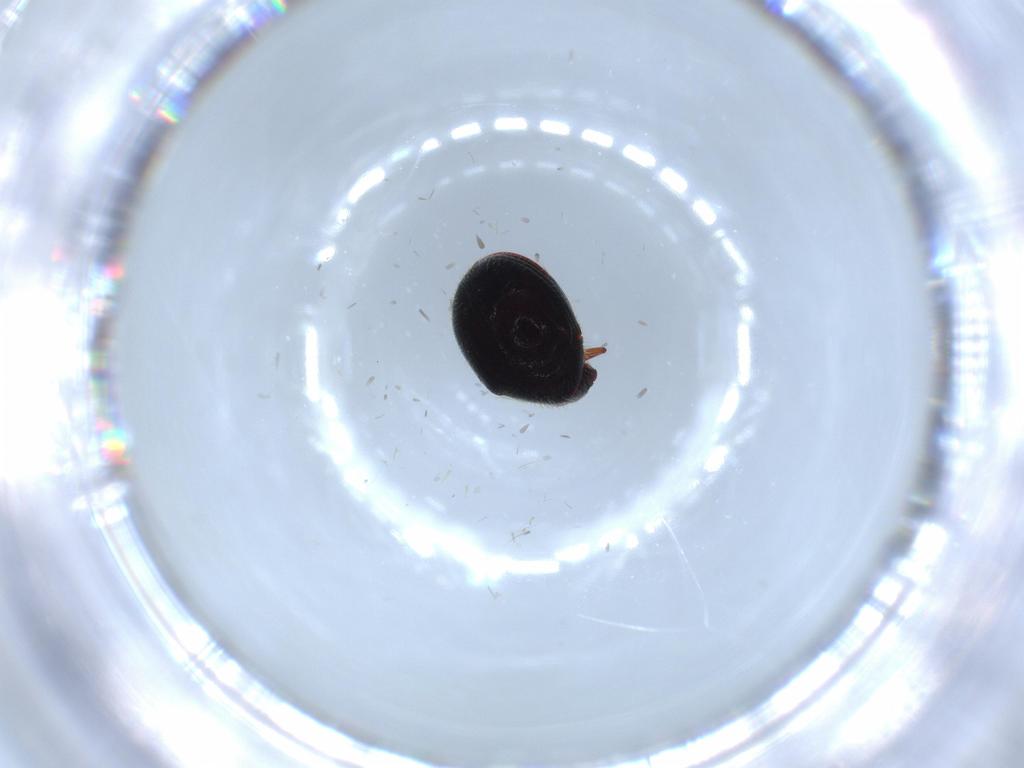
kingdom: Animalia
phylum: Arthropoda
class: Insecta
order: Coleoptera
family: Ptinidae
